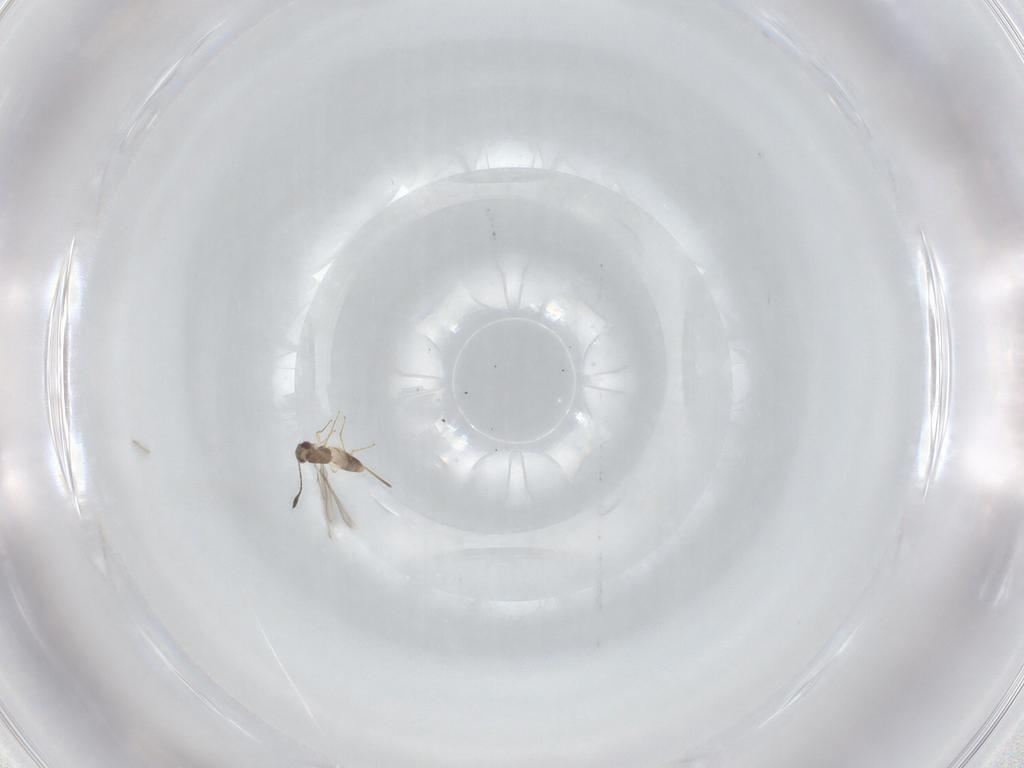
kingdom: Animalia
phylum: Arthropoda
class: Insecta
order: Hymenoptera
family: Mymaridae
